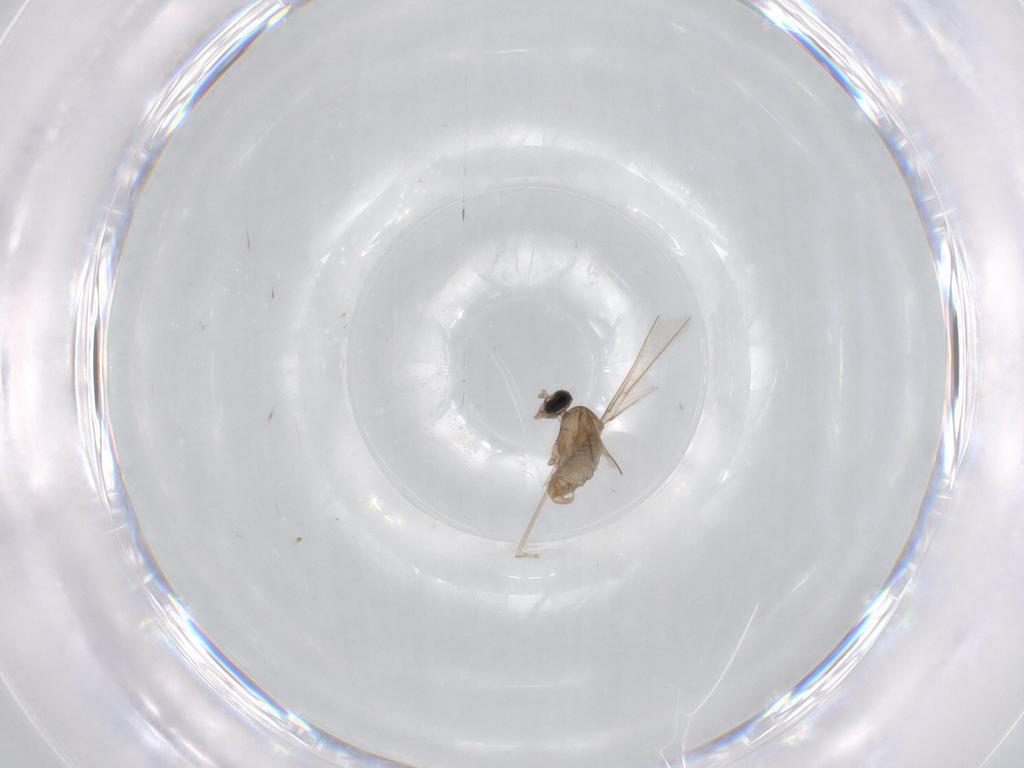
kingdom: Animalia
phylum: Arthropoda
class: Insecta
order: Diptera
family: Cecidomyiidae
